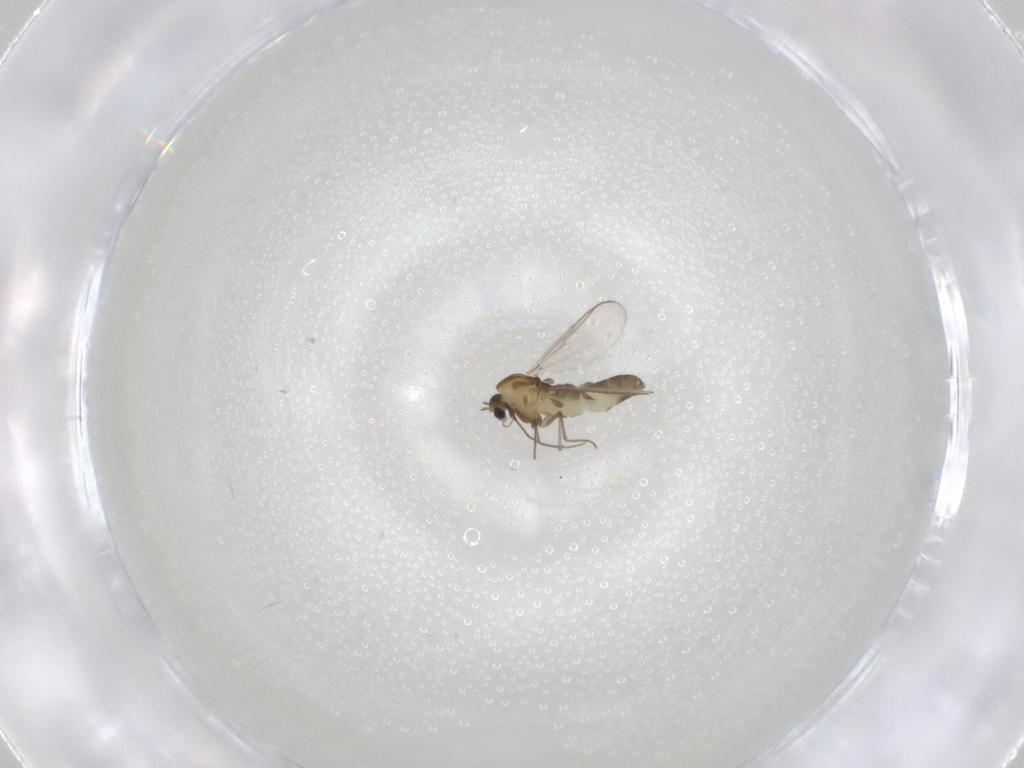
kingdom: Animalia
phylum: Arthropoda
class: Insecta
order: Diptera
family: Chironomidae
